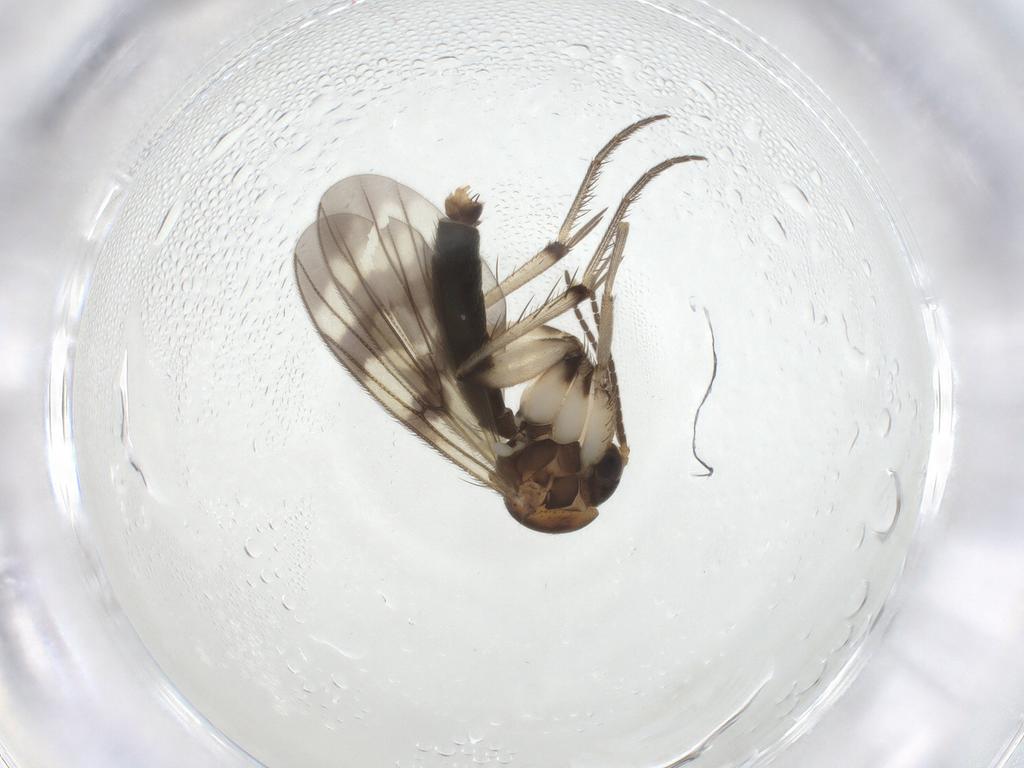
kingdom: Animalia
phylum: Arthropoda
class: Insecta
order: Diptera
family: Mycetophilidae
